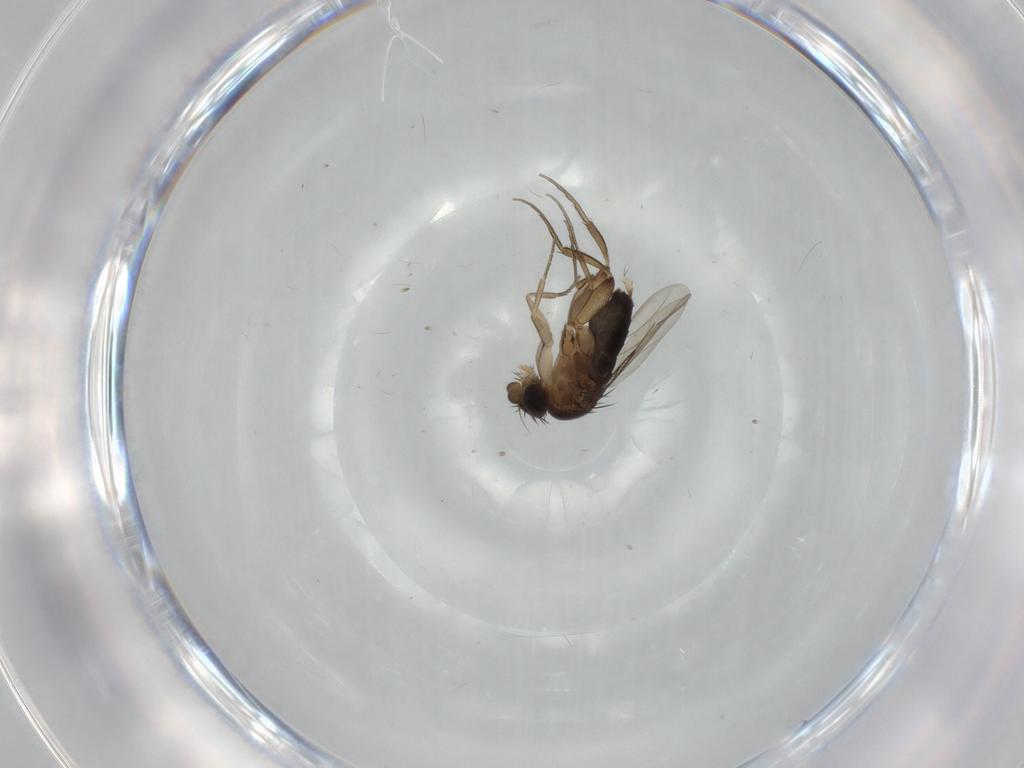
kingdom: Animalia
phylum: Arthropoda
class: Insecta
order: Diptera
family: Phoridae
